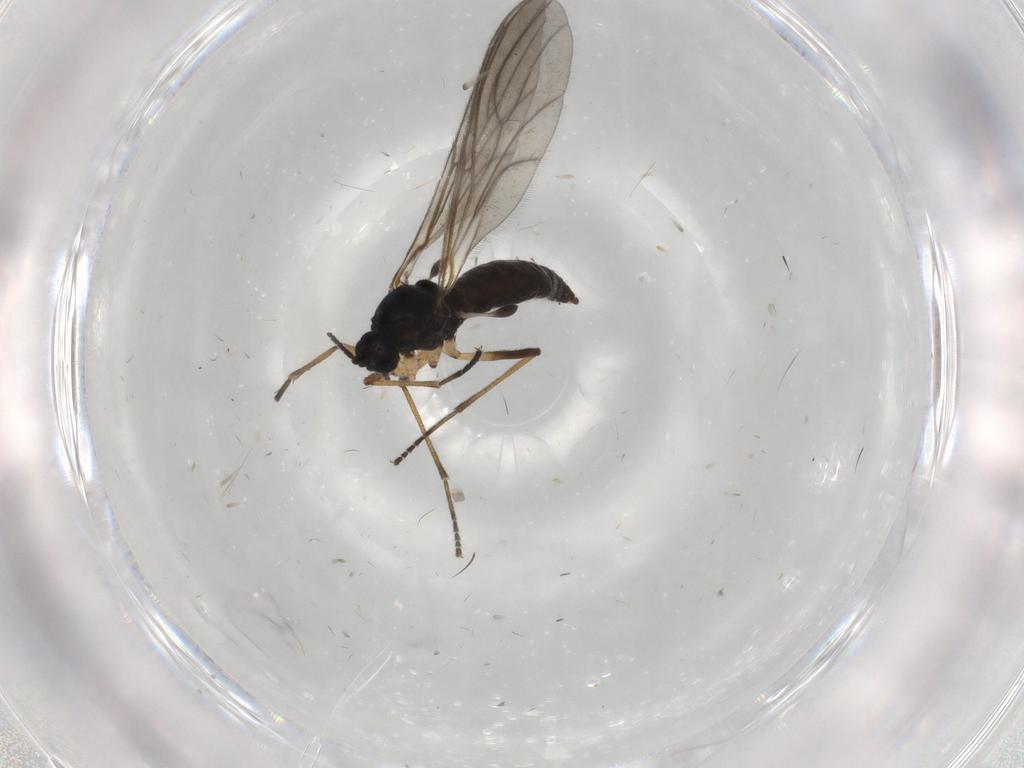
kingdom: Animalia
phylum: Arthropoda
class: Insecta
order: Diptera
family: Sciaridae
